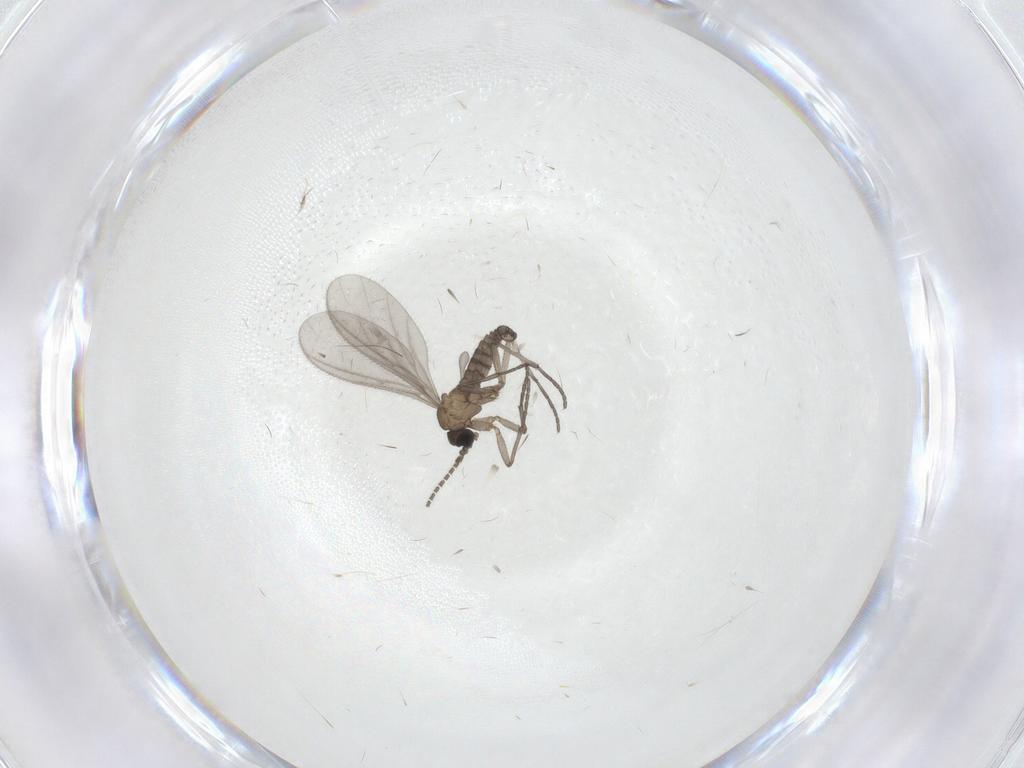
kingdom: Animalia
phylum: Arthropoda
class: Insecta
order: Diptera
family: Sciaridae
